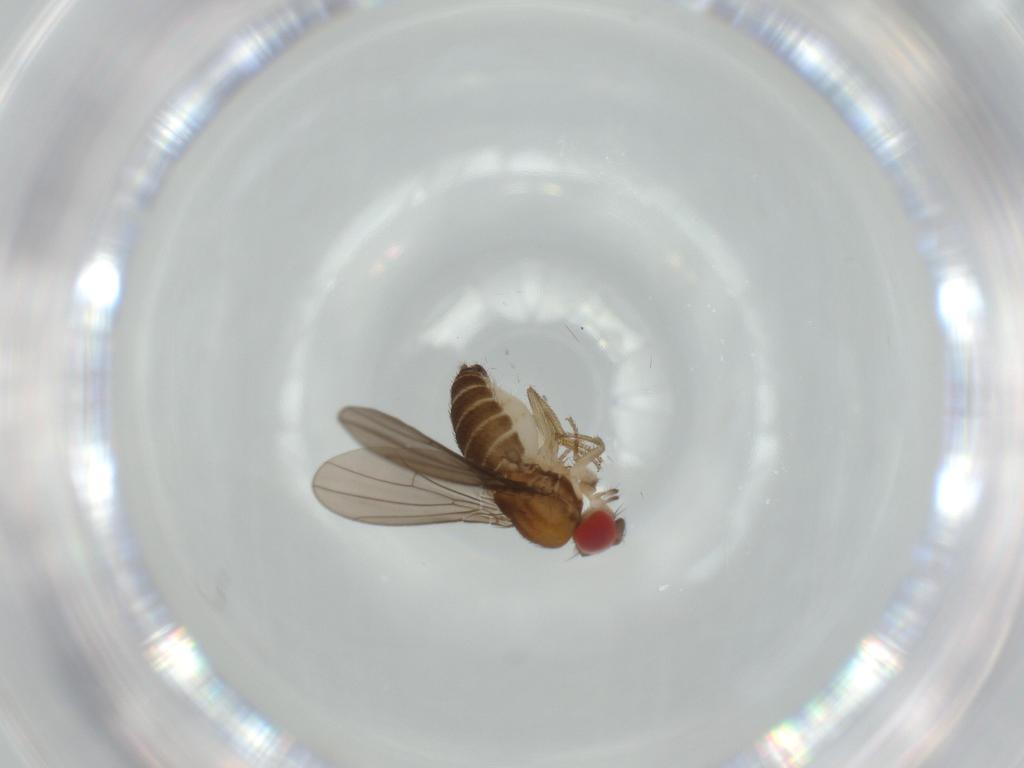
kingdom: Animalia
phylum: Arthropoda
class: Insecta
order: Diptera
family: Drosophilidae
